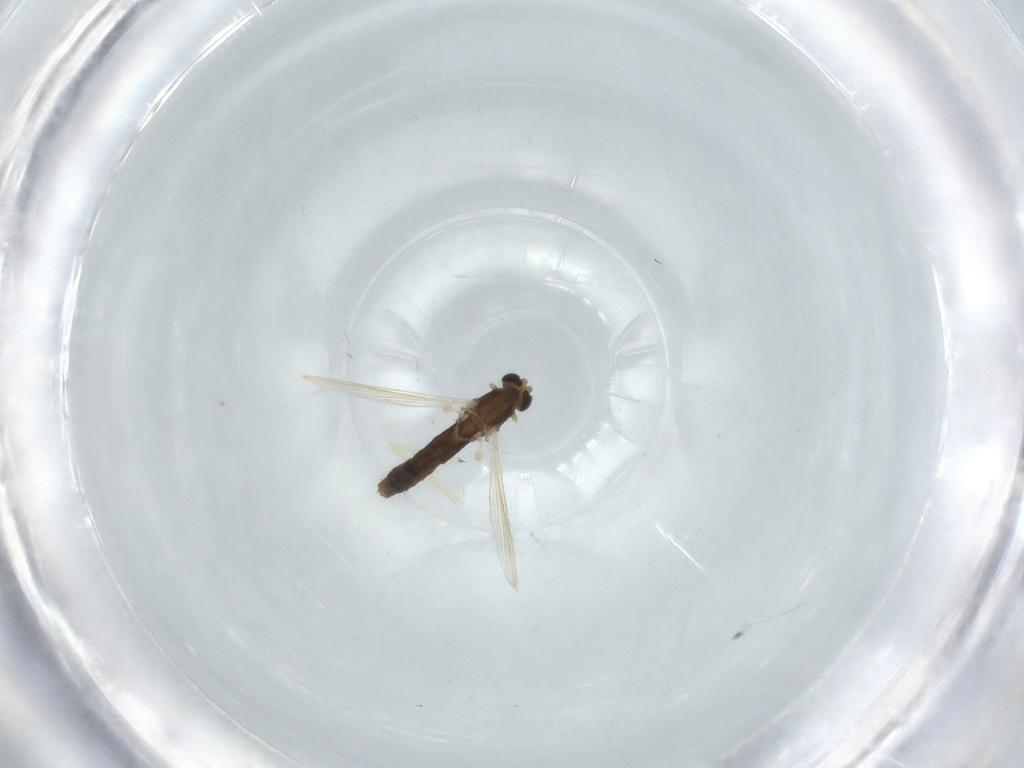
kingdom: Animalia
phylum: Arthropoda
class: Insecta
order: Diptera
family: Chironomidae
